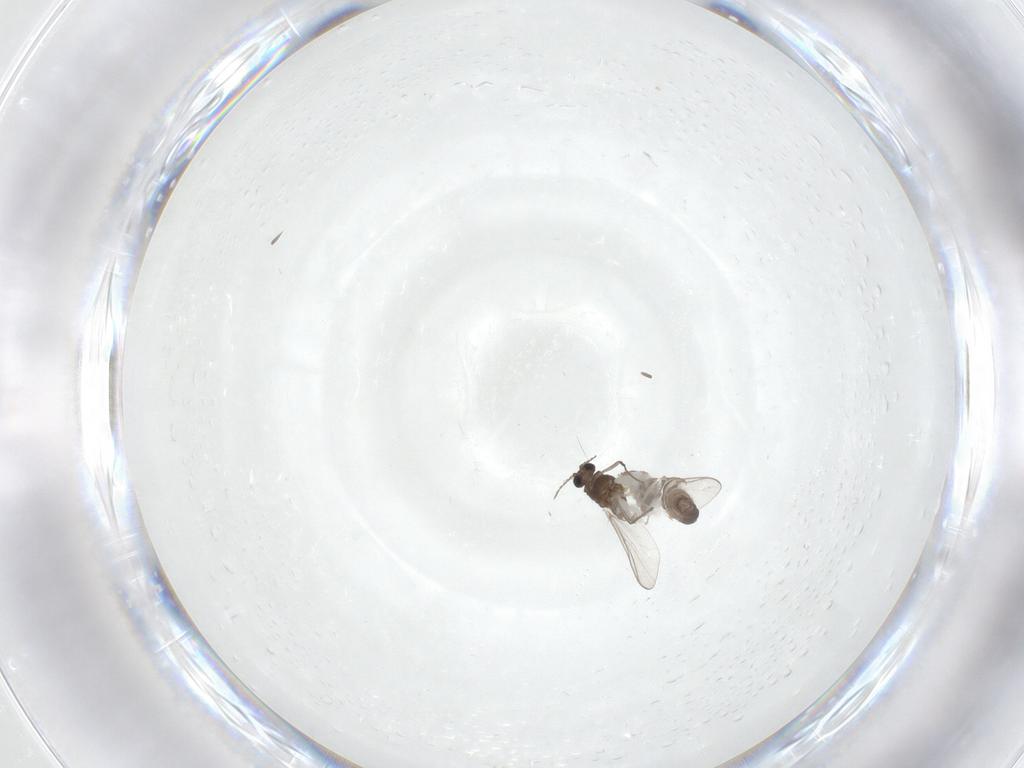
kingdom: Animalia
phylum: Arthropoda
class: Insecta
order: Diptera
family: Chironomidae
